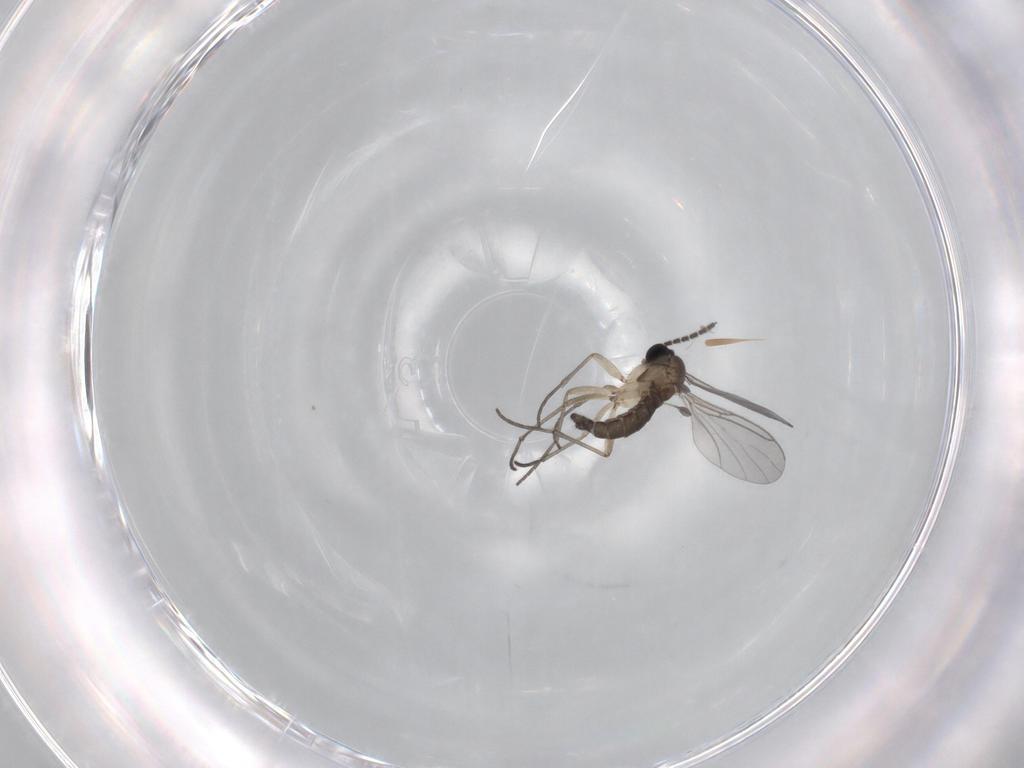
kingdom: Animalia
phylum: Arthropoda
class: Insecta
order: Diptera
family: Sciaridae
